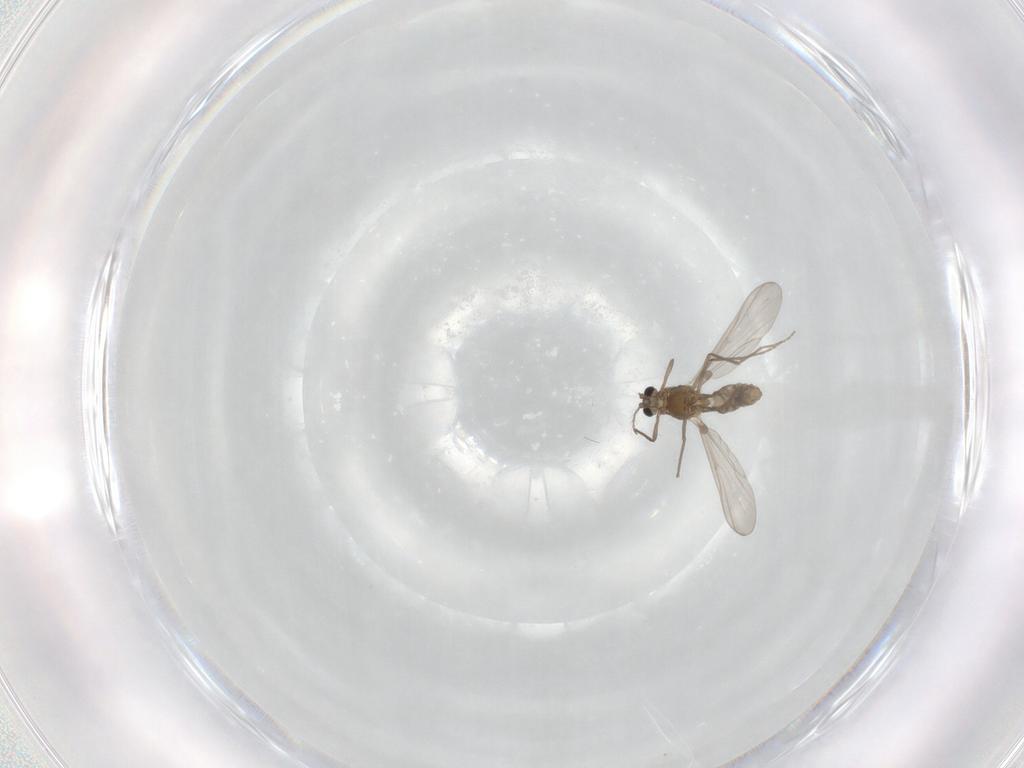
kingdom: Animalia
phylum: Arthropoda
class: Insecta
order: Diptera
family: Chironomidae
